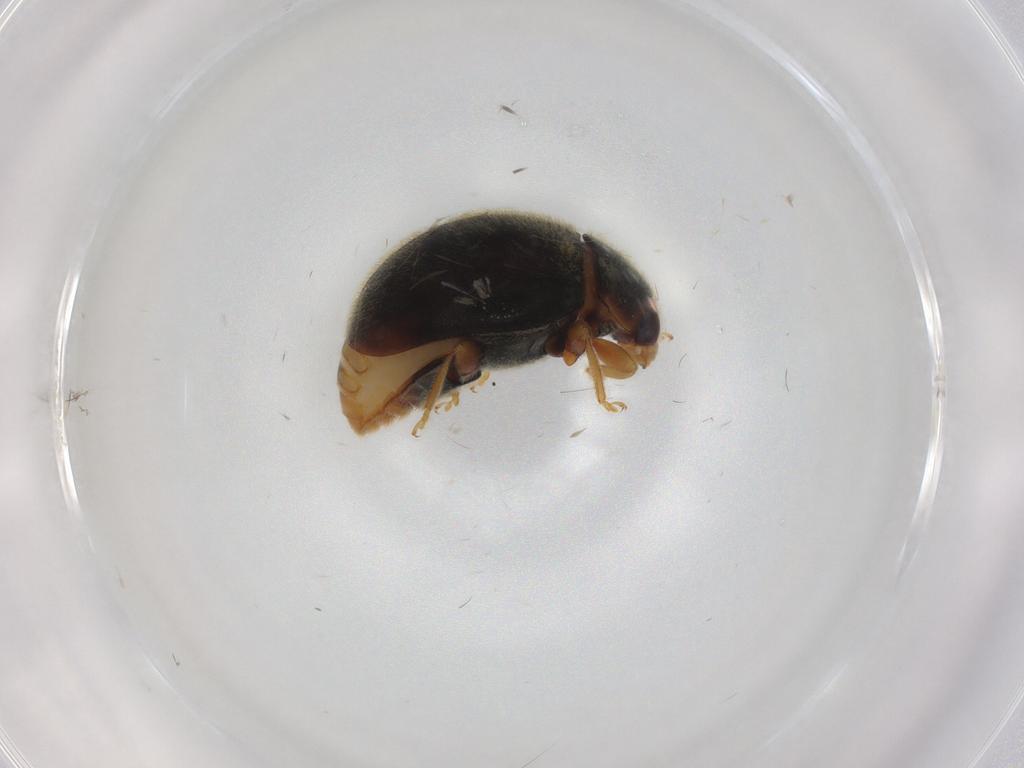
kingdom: Animalia
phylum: Arthropoda
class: Insecta
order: Coleoptera
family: Coccinellidae
